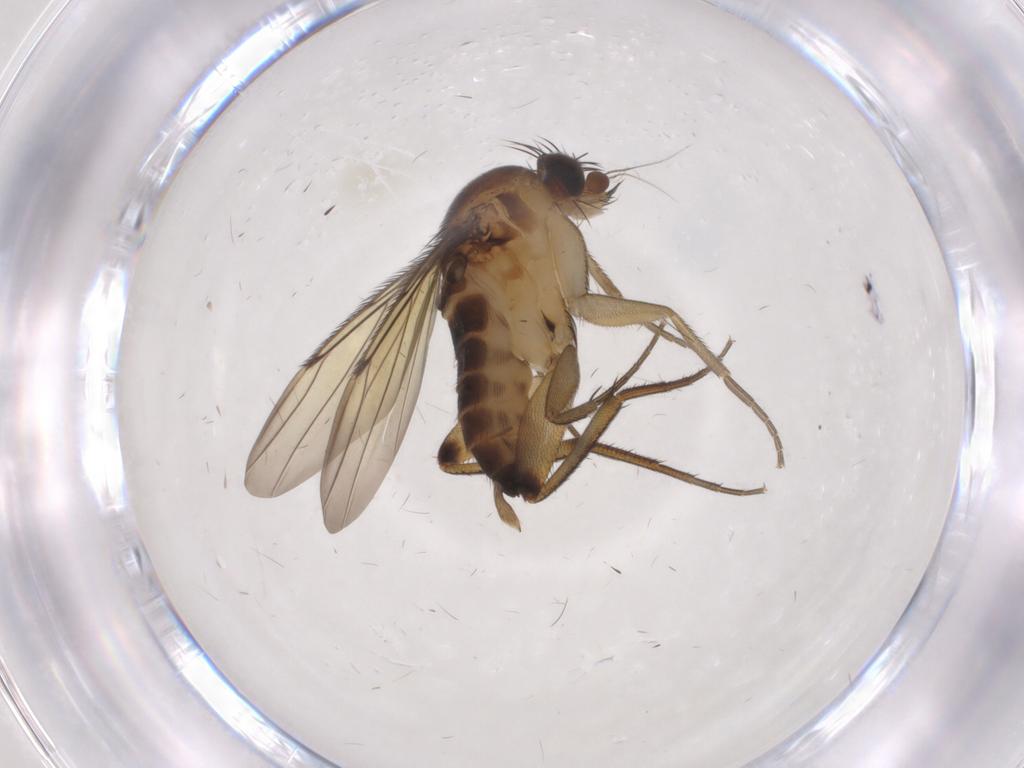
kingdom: Animalia
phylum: Arthropoda
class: Insecta
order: Diptera
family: Phoridae
